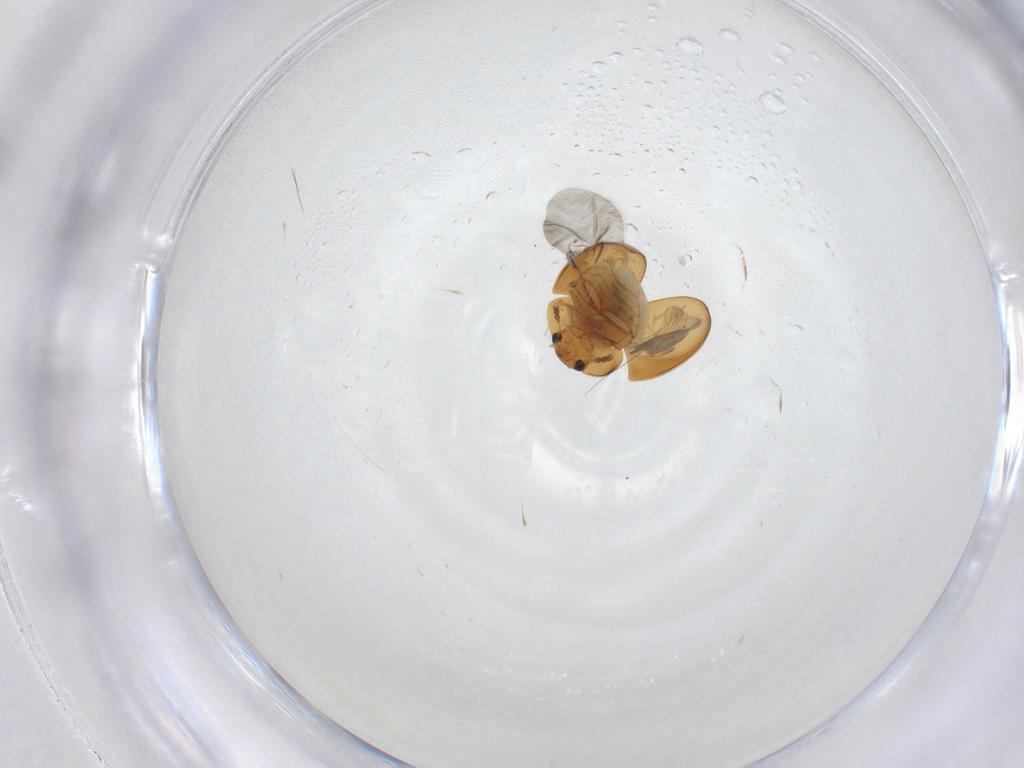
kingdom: Animalia
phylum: Arthropoda
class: Insecta
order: Coleoptera
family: Phalacridae
